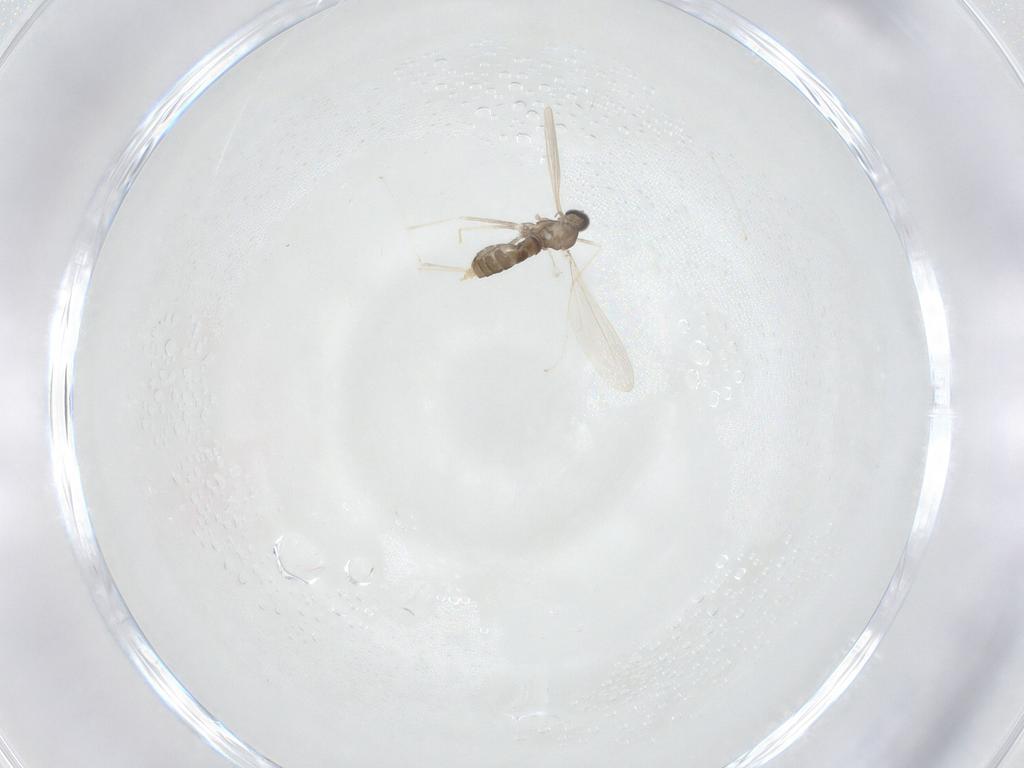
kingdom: Animalia
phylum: Arthropoda
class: Insecta
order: Diptera
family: Cecidomyiidae
